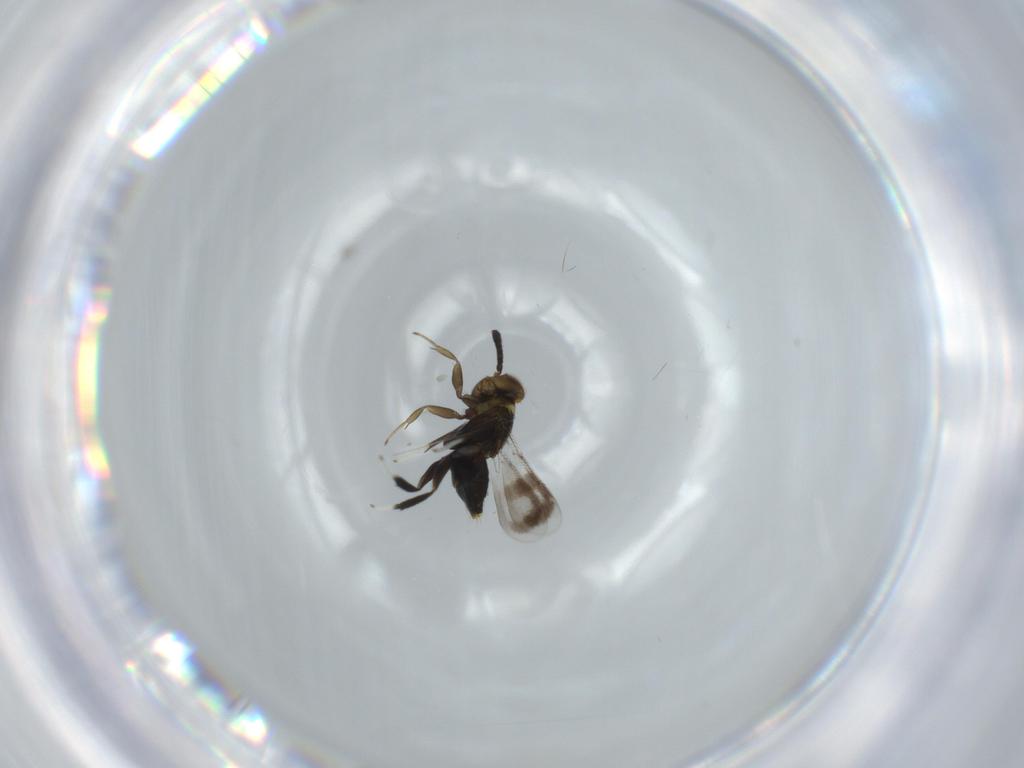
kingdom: Animalia
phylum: Arthropoda
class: Insecta
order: Hymenoptera
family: Aphelinidae
